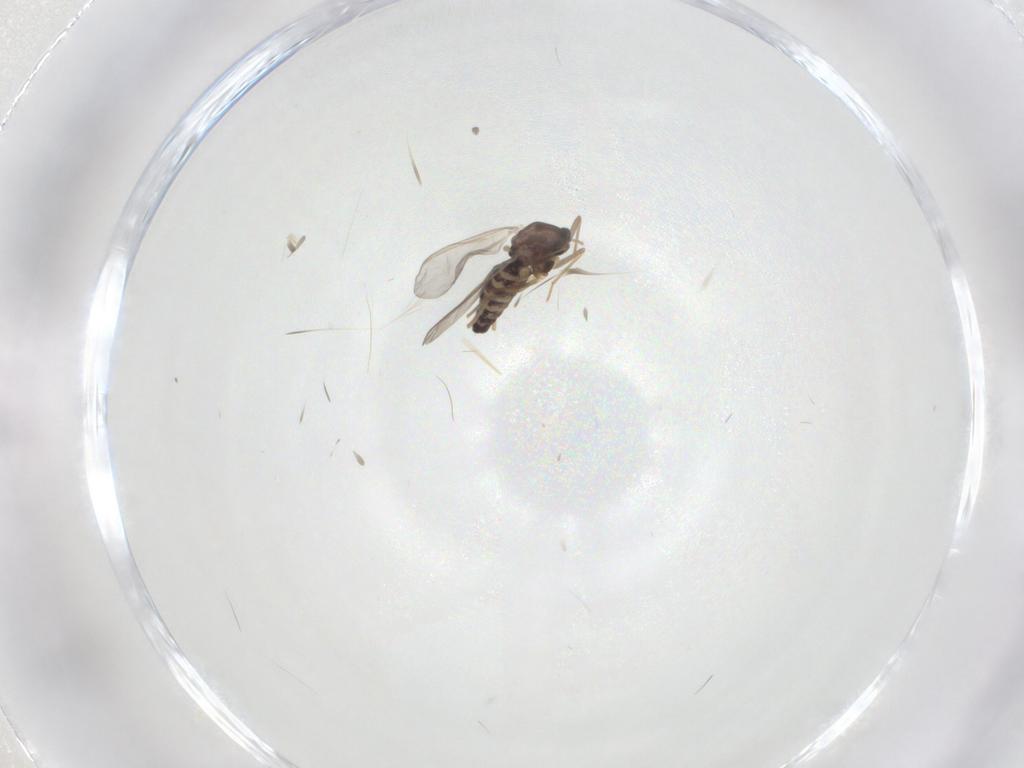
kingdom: Animalia
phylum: Arthropoda
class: Insecta
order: Diptera
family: Chironomidae
